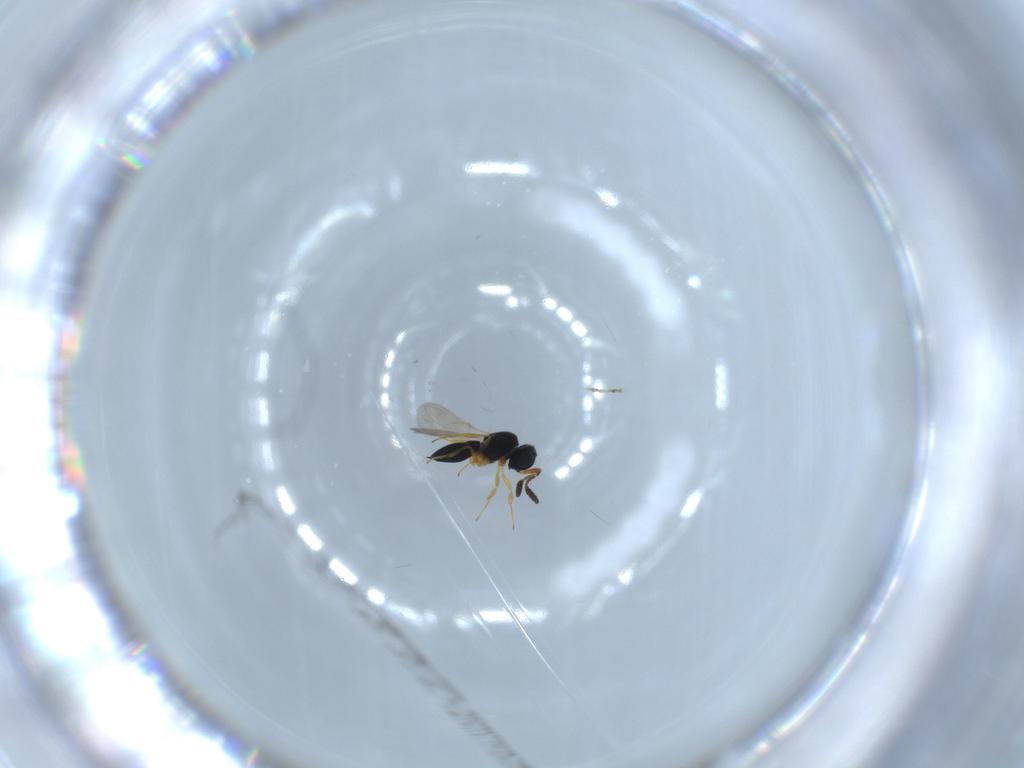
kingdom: Animalia
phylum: Arthropoda
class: Insecta
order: Hymenoptera
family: Scelionidae
